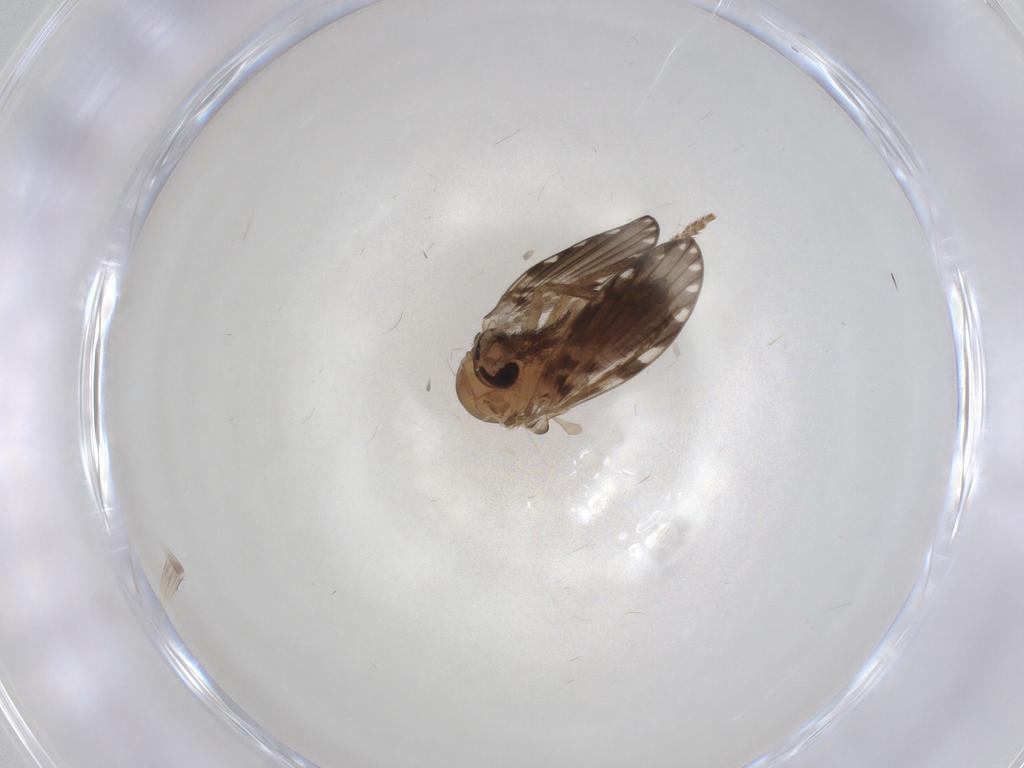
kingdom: Animalia
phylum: Arthropoda
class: Insecta
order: Diptera
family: Psychodidae
